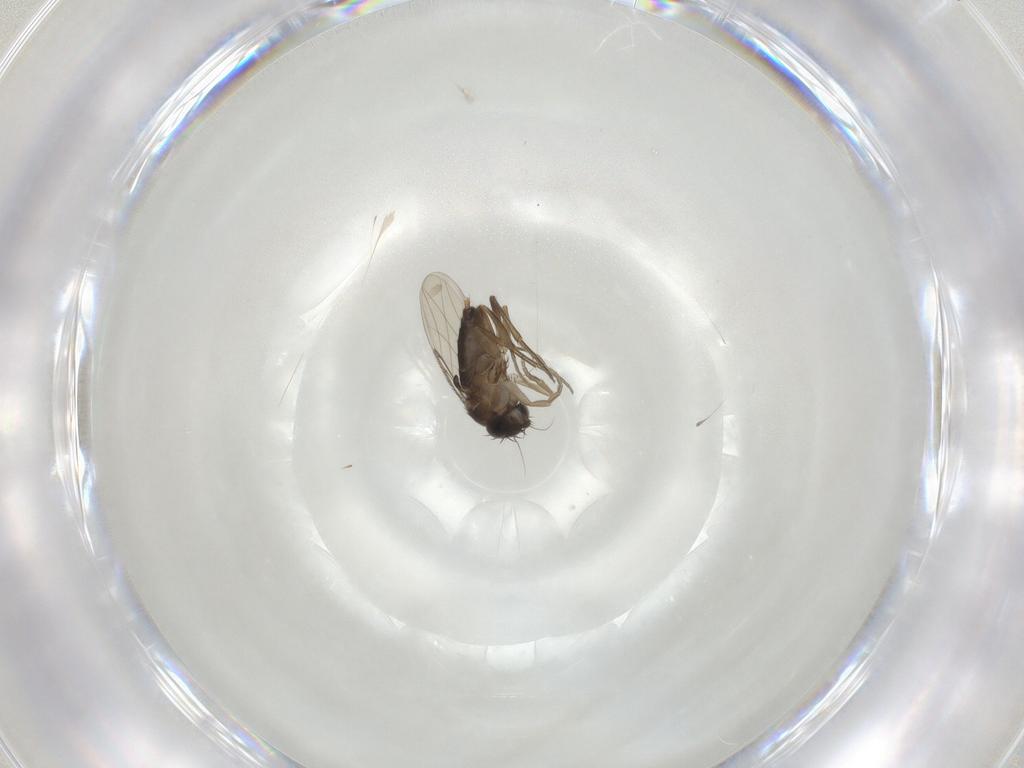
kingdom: Animalia
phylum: Arthropoda
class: Insecta
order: Diptera
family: Phoridae
